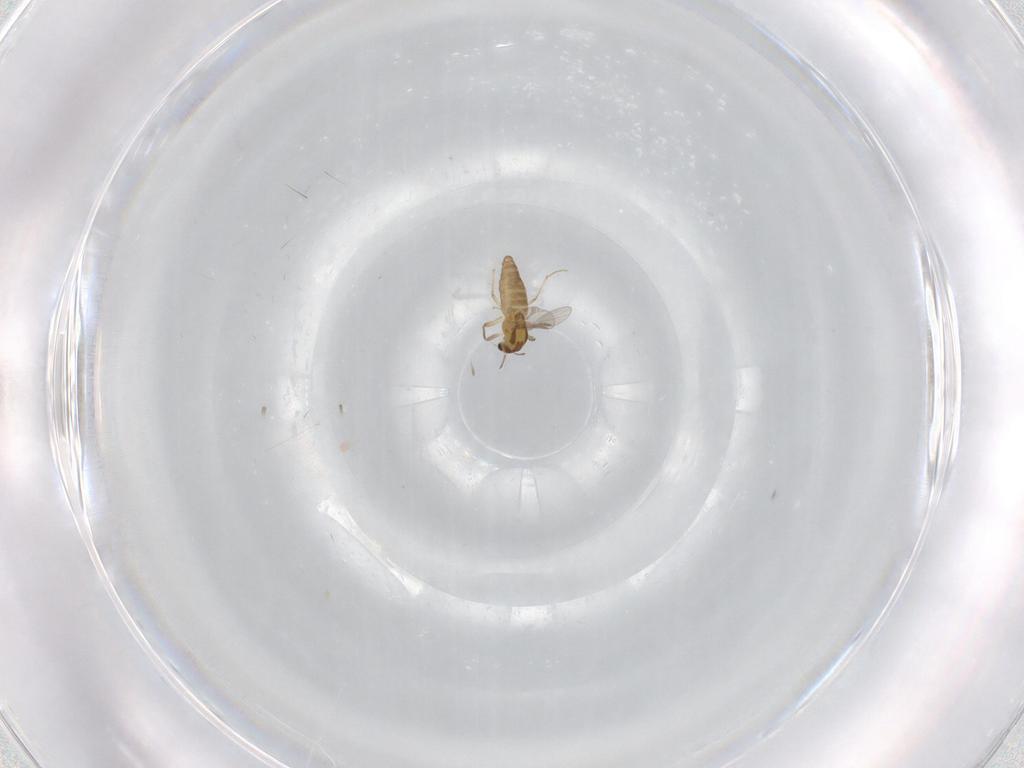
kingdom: Animalia
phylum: Arthropoda
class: Insecta
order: Diptera
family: Chironomidae
